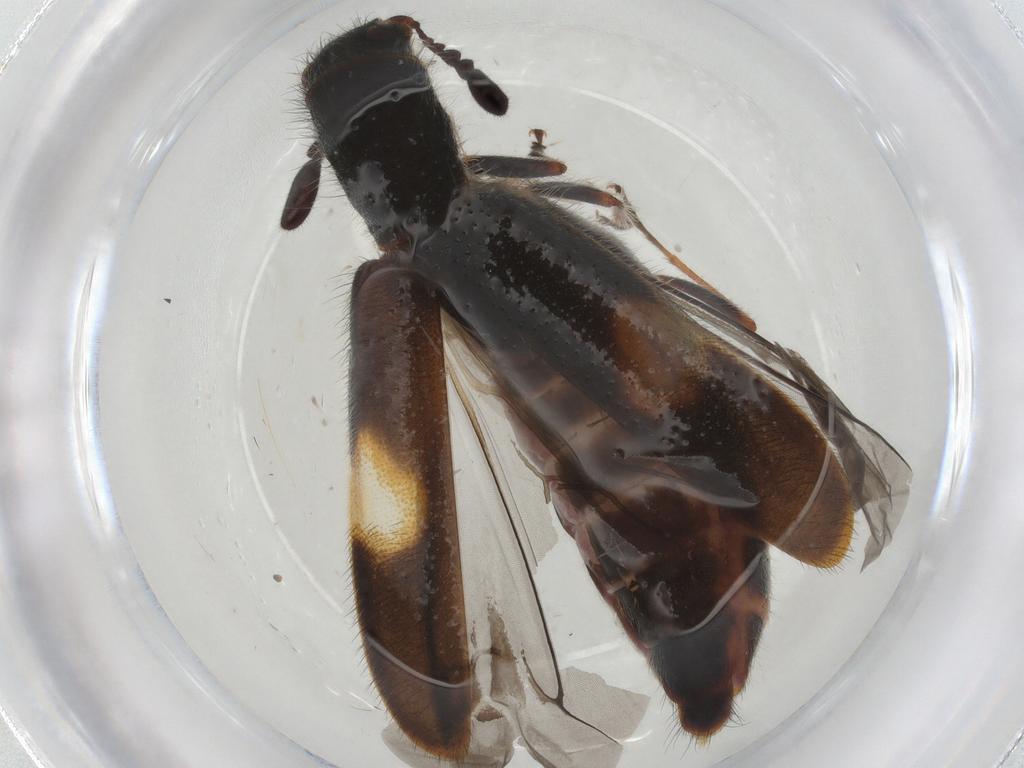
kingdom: Animalia
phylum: Arthropoda
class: Insecta
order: Coleoptera
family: Cleridae
